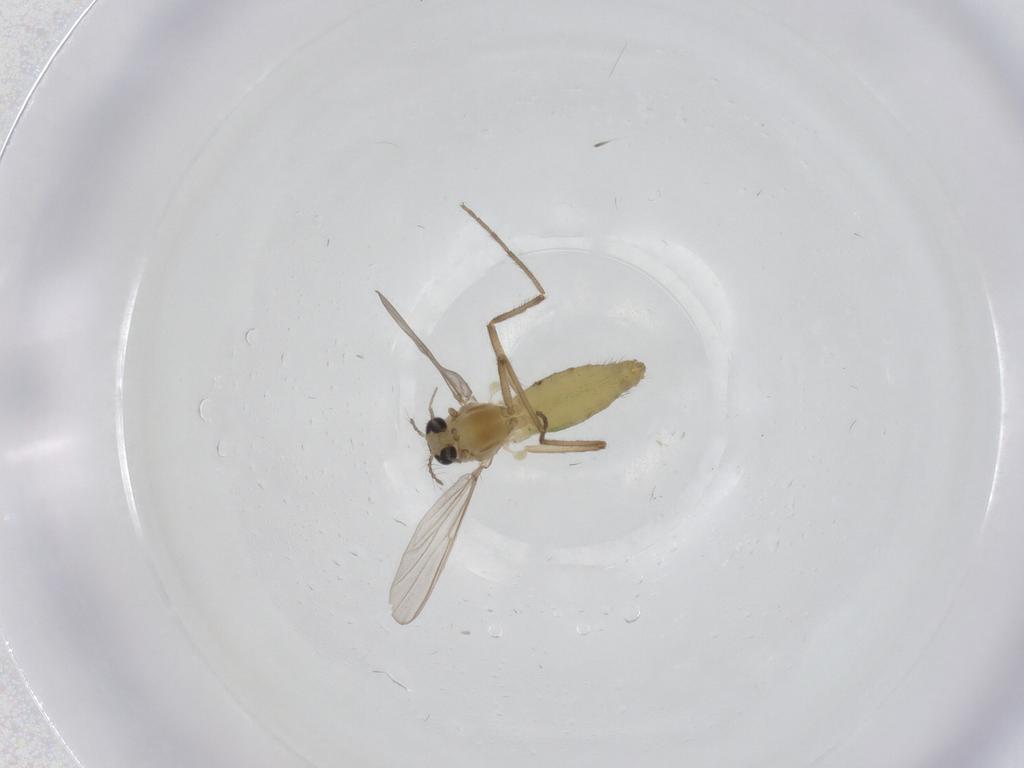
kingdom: Animalia
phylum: Arthropoda
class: Insecta
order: Diptera
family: Chironomidae
